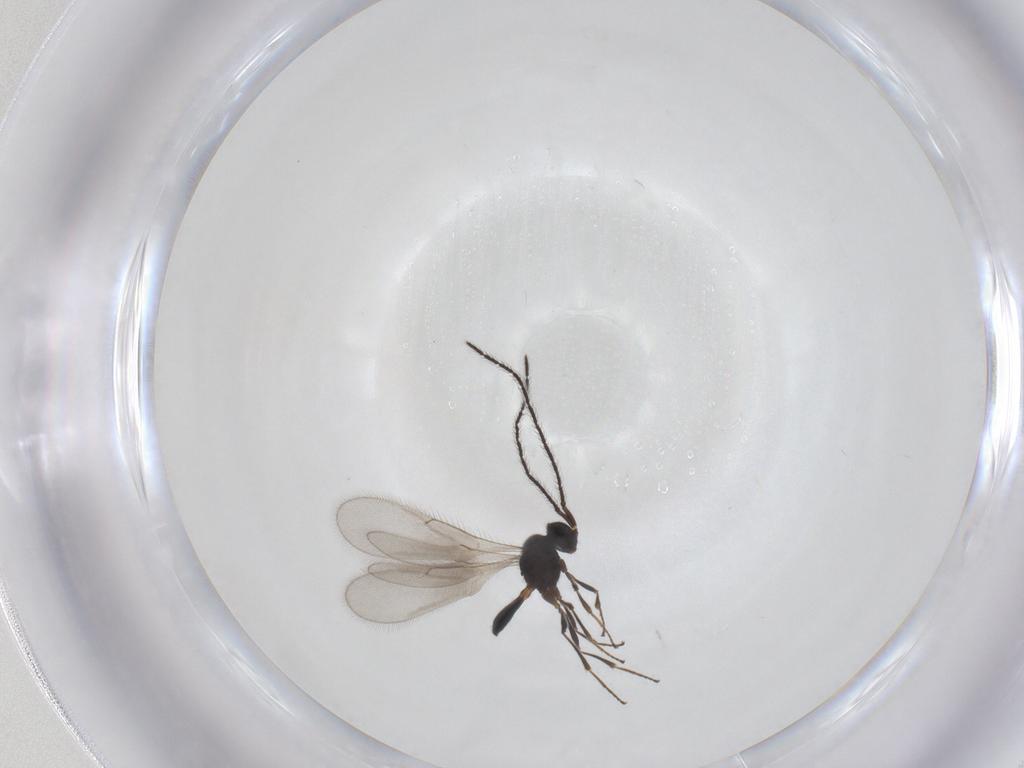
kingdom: Animalia
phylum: Arthropoda
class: Insecta
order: Hymenoptera
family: Scelionidae
